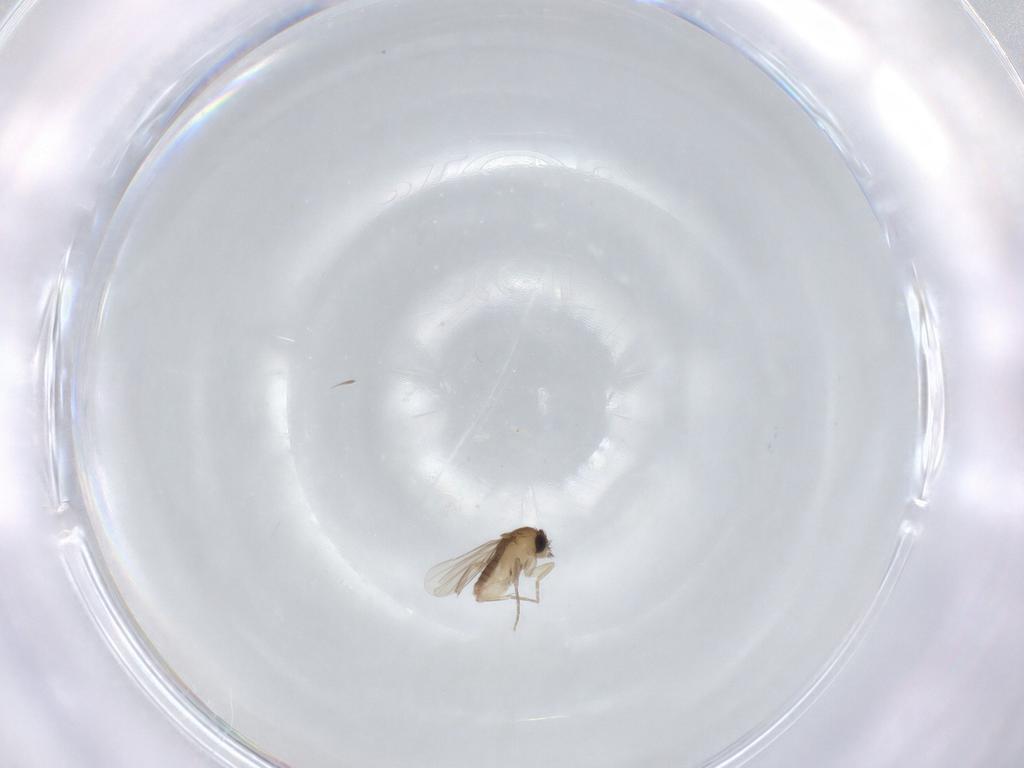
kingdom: Animalia
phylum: Arthropoda
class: Insecta
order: Diptera
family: Phoridae
